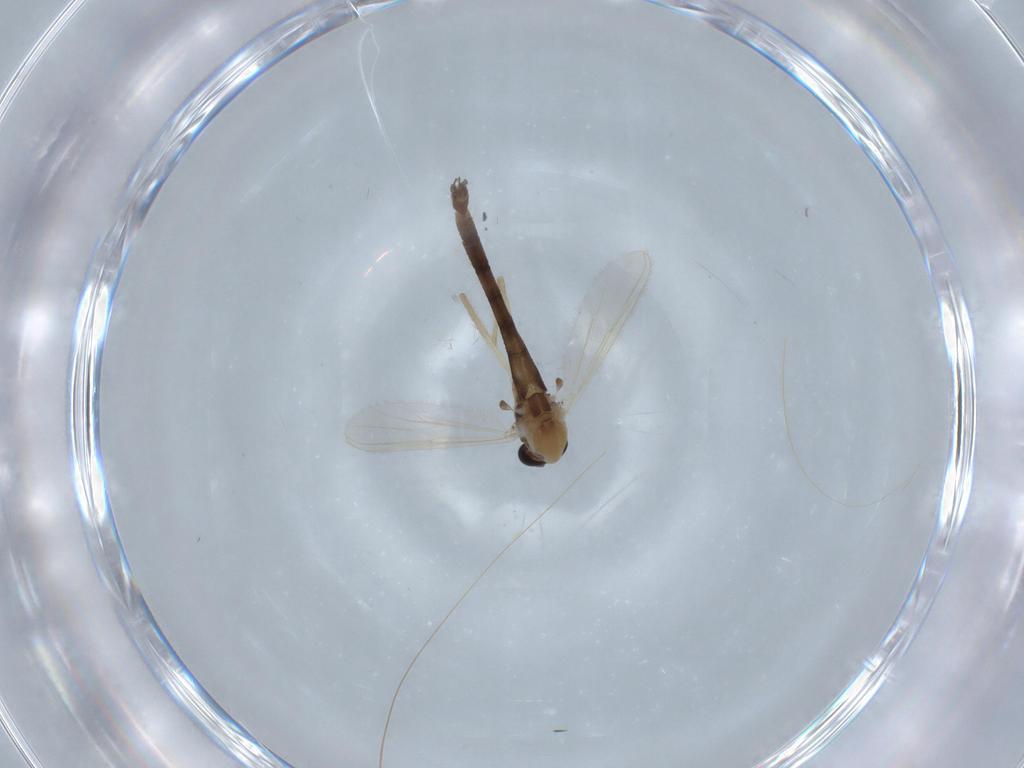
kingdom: Animalia
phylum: Arthropoda
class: Insecta
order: Diptera
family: Chironomidae
